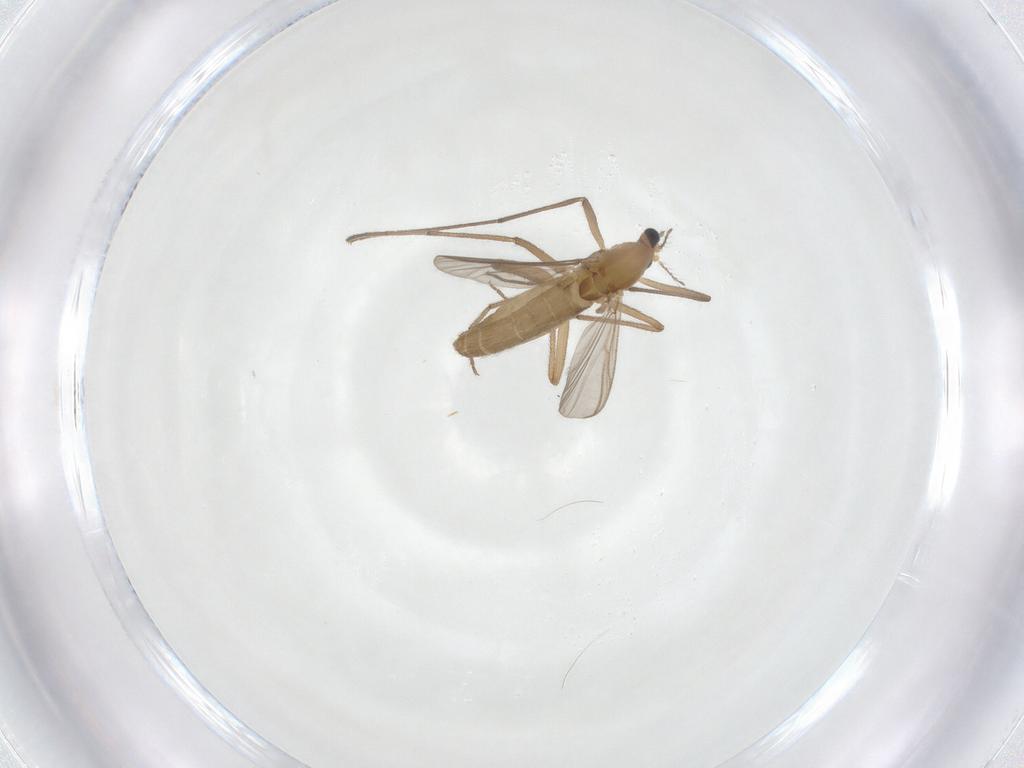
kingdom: Animalia
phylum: Arthropoda
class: Insecta
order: Diptera
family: Chironomidae
